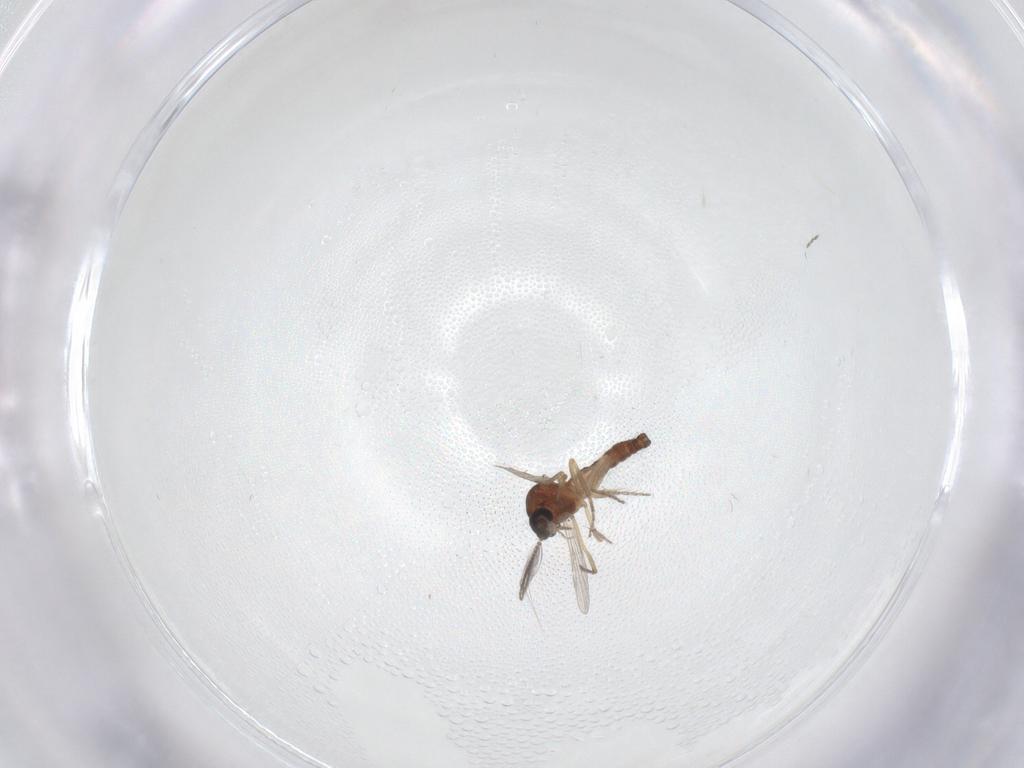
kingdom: Animalia
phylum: Arthropoda
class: Insecta
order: Diptera
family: Ceratopogonidae
